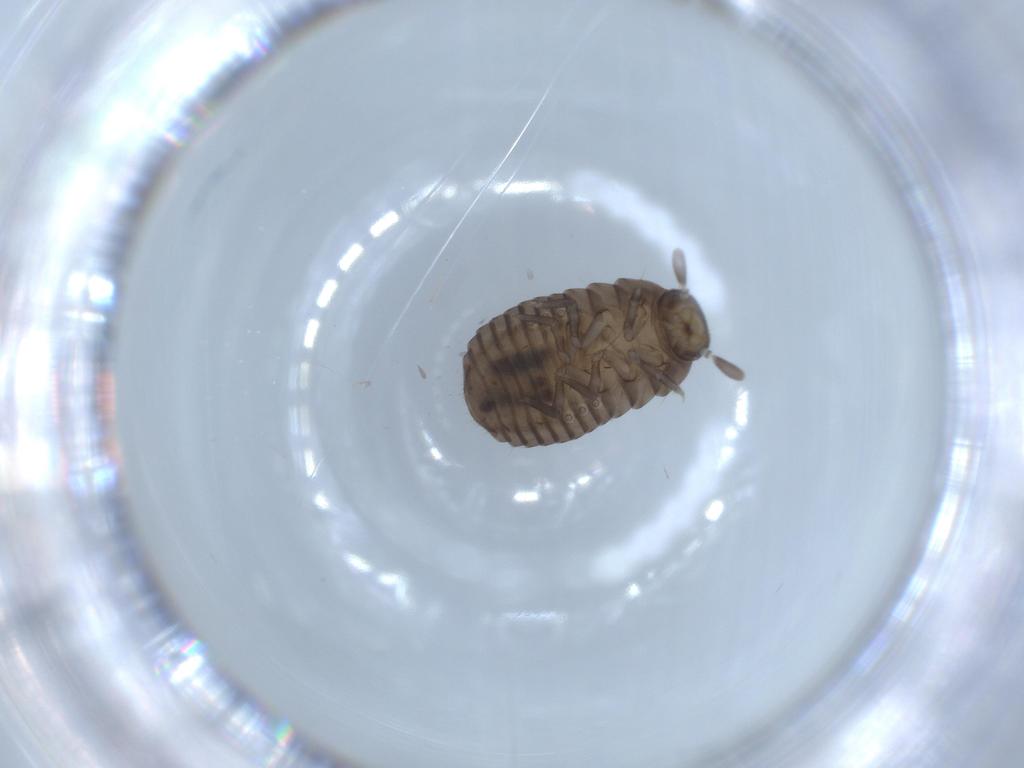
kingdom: Animalia
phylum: Arthropoda
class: Insecta
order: Coleoptera
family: Tenebrionidae
